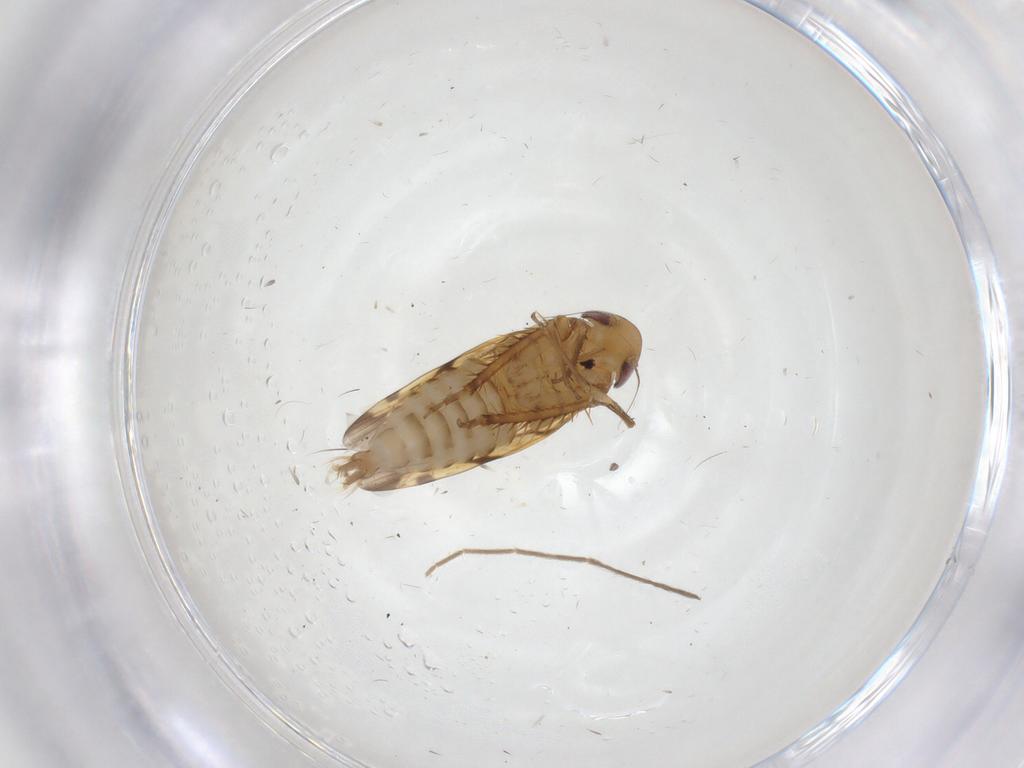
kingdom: Animalia
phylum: Arthropoda
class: Insecta
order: Hemiptera
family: Cicadellidae
